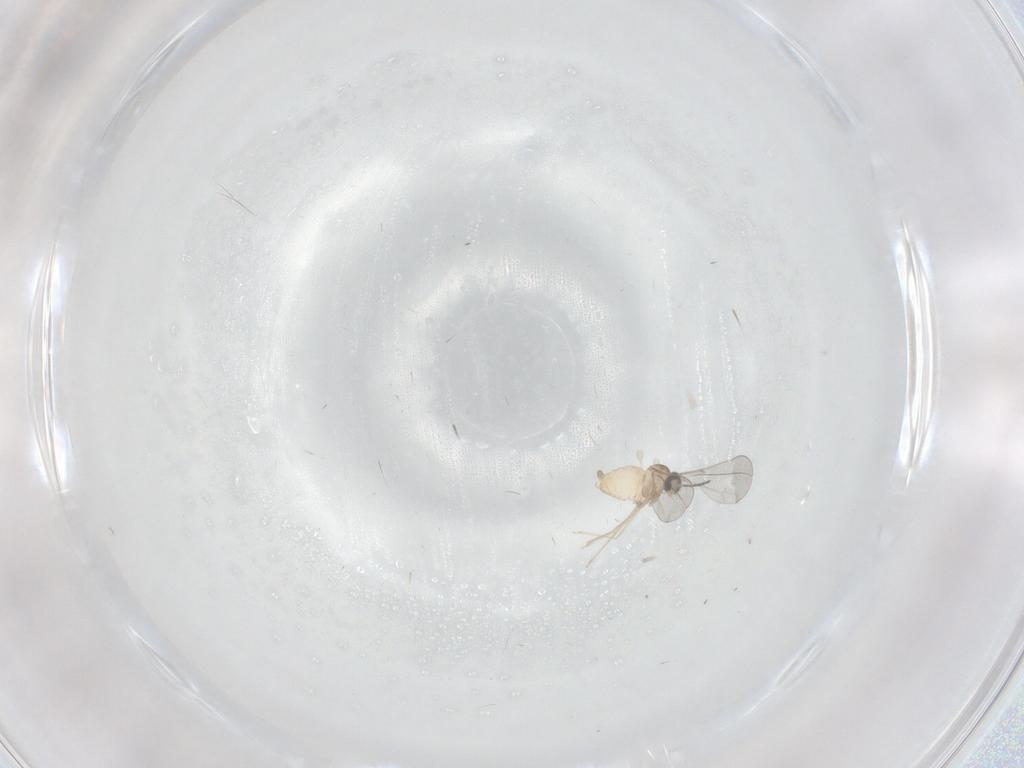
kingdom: Animalia
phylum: Arthropoda
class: Insecta
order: Diptera
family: Cecidomyiidae
